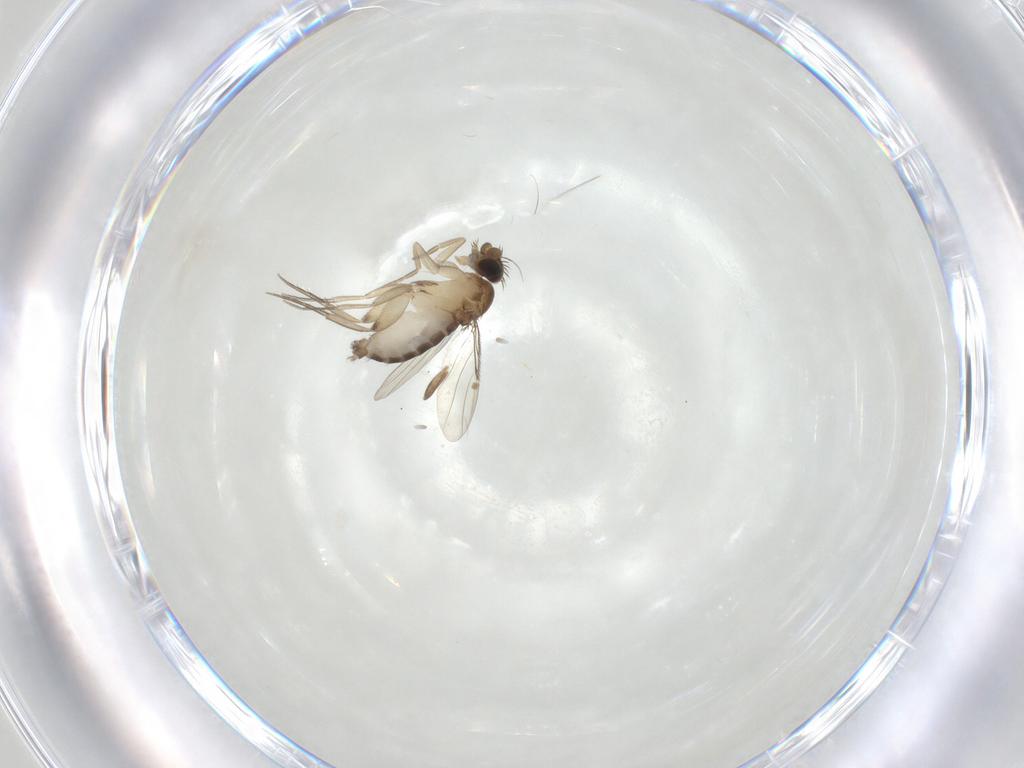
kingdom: Animalia
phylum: Arthropoda
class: Insecta
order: Diptera
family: Phoridae
